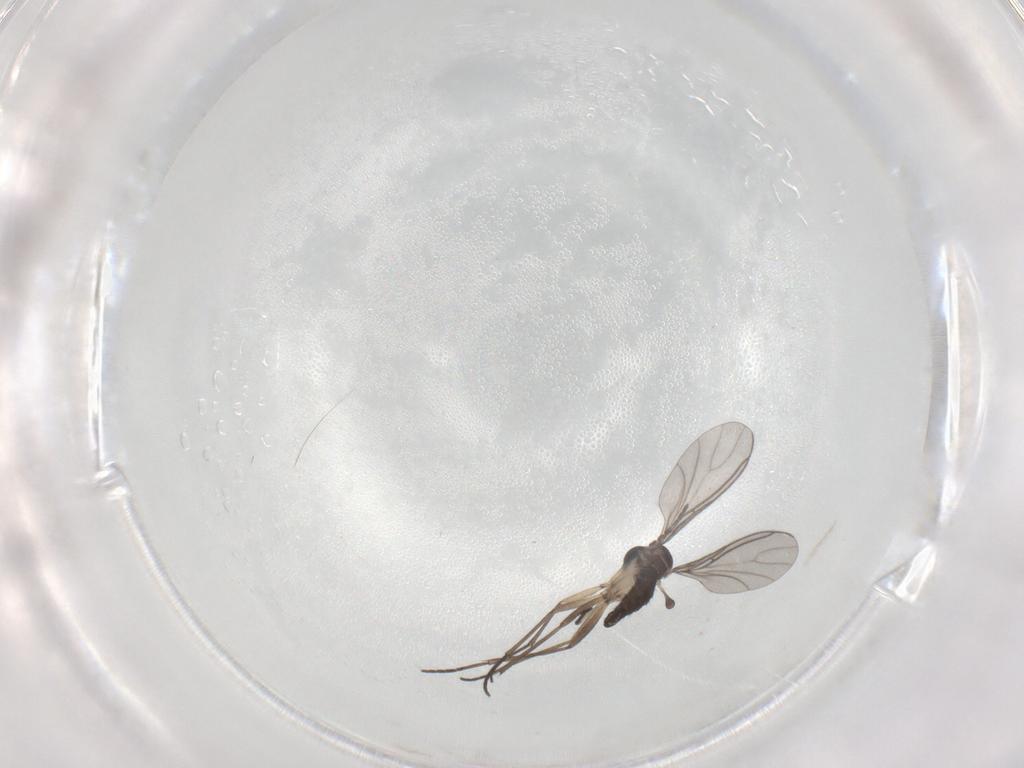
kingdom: Animalia
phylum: Arthropoda
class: Insecta
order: Diptera
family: Sciaridae
